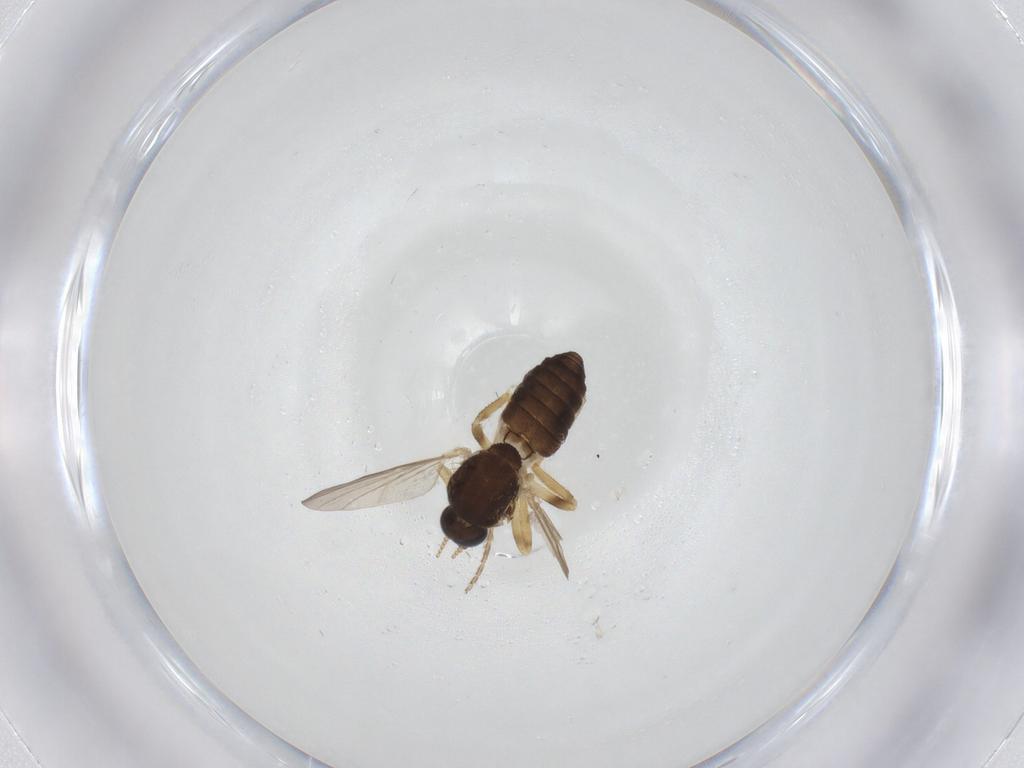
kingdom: Animalia
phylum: Arthropoda
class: Insecta
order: Diptera
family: Ceratopogonidae
